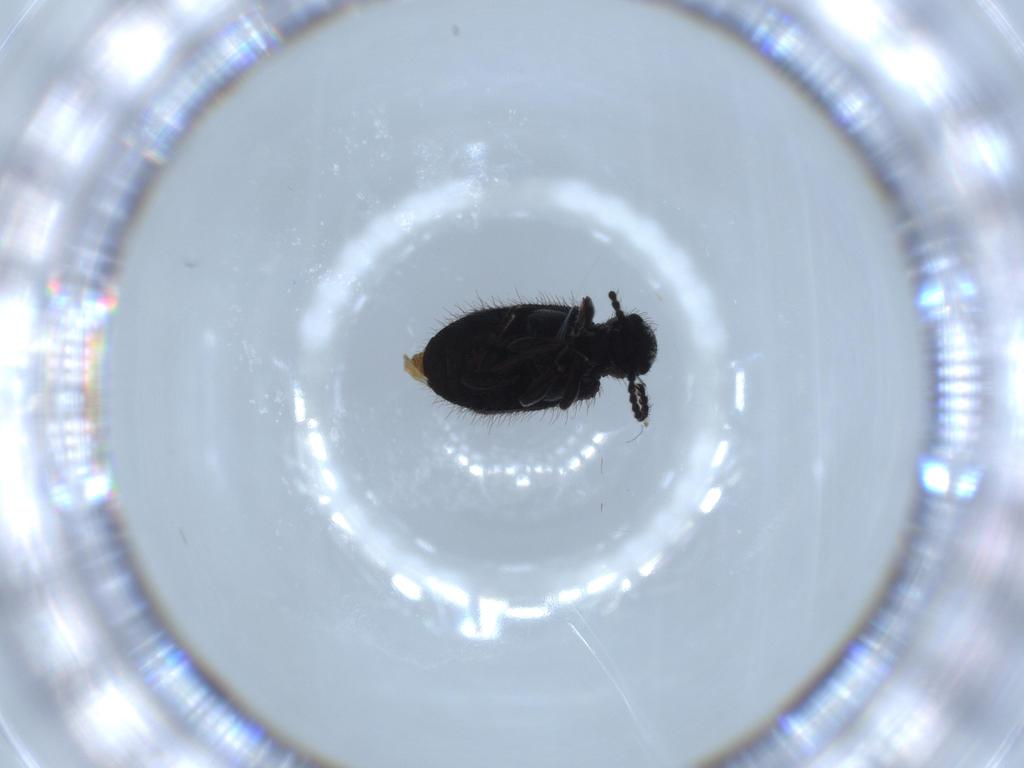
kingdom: Animalia
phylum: Arthropoda
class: Insecta
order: Coleoptera
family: Ptinidae
